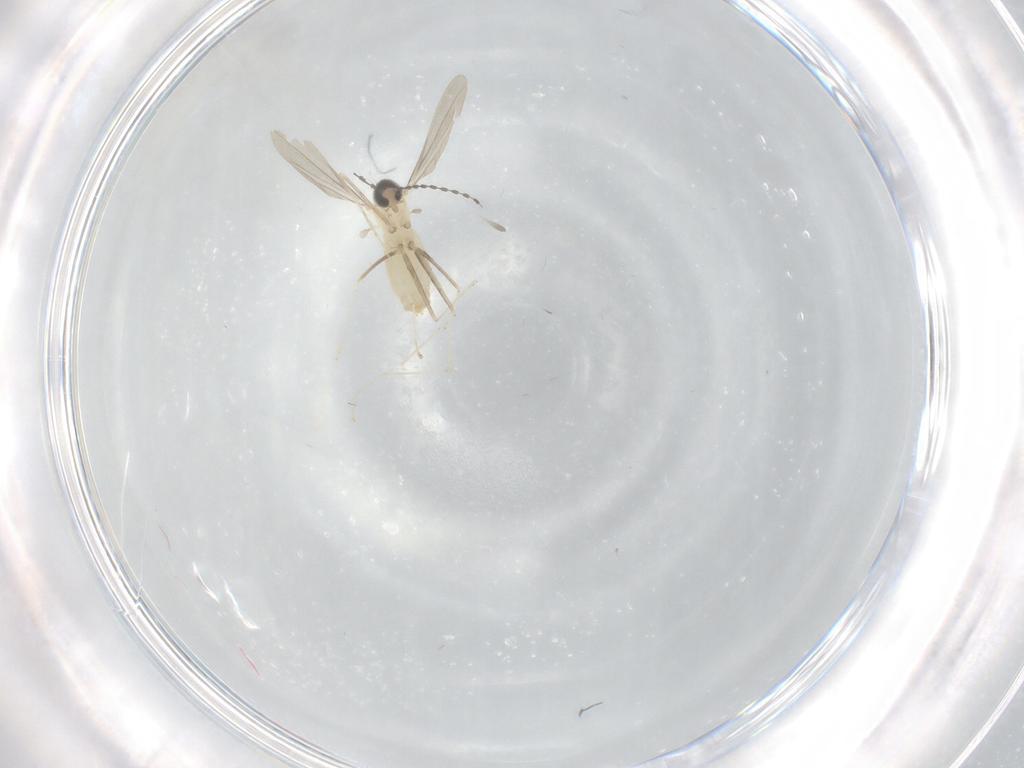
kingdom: Animalia
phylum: Arthropoda
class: Insecta
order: Diptera
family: Cecidomyiidae
